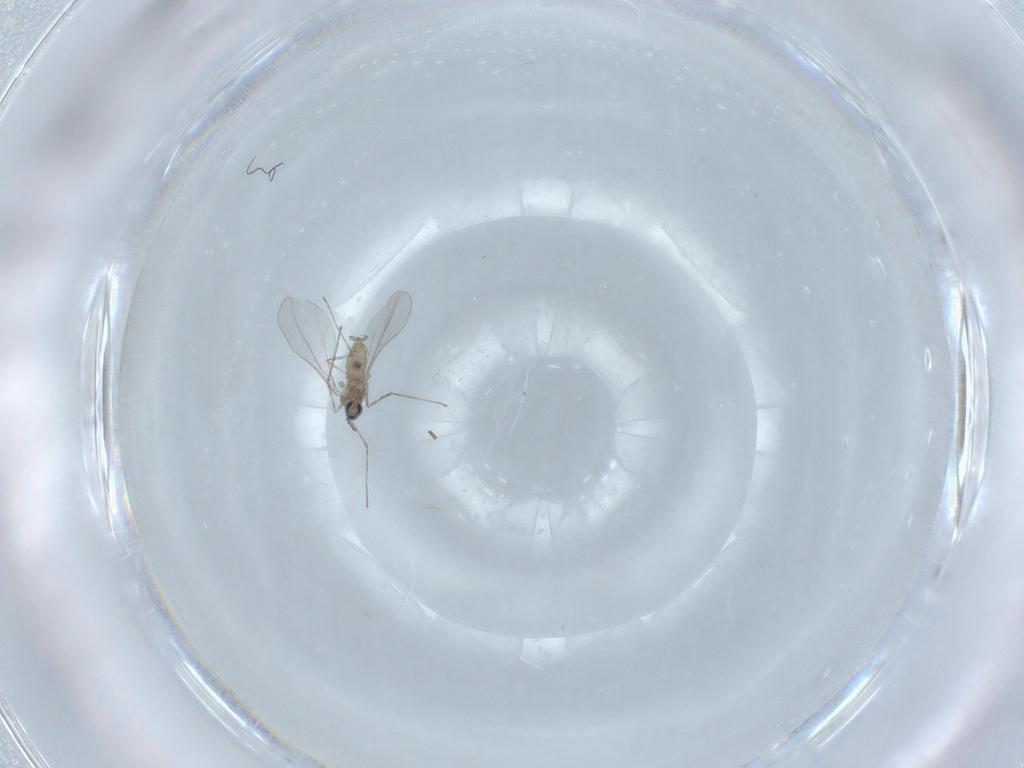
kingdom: Animalia
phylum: Arthropoda
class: Insecta
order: Diptera
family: Cecidomyiidae
